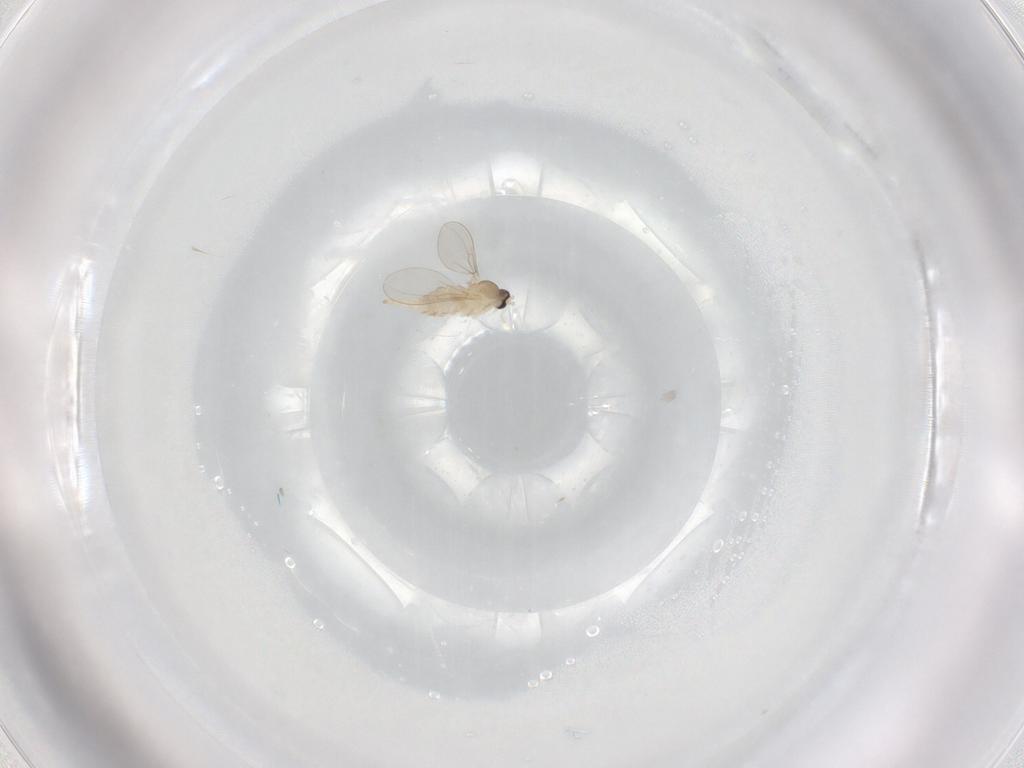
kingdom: Animalia
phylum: Arthropoda
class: Insecta
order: Diptera
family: Cecidomyiidae
